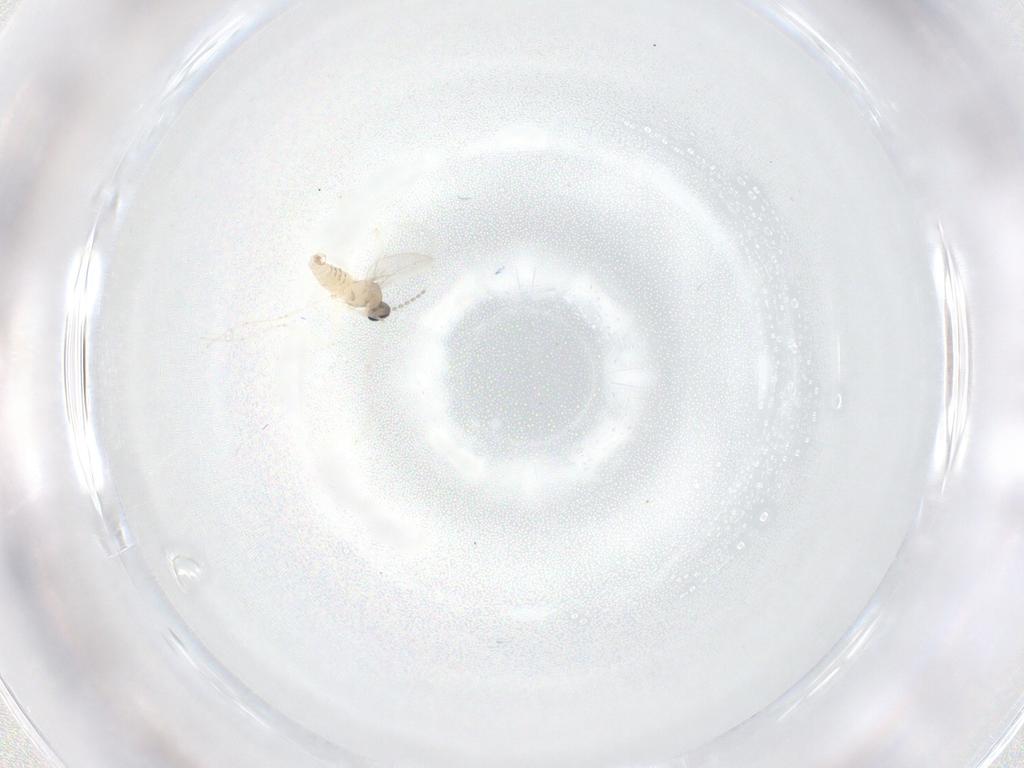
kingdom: Animalia
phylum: Arthropoda
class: Insecta
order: Diptera
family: Cecidomyiidae
